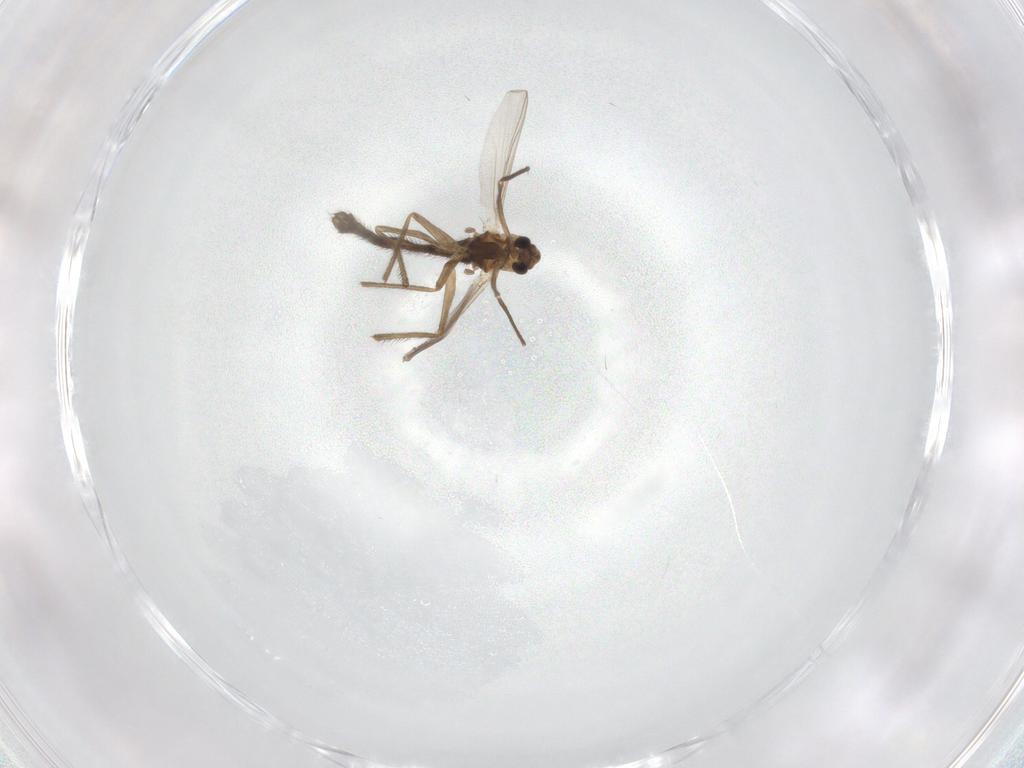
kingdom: Animalia
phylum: Arthropoda
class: Insecta
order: Diptera
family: Chironomidae
